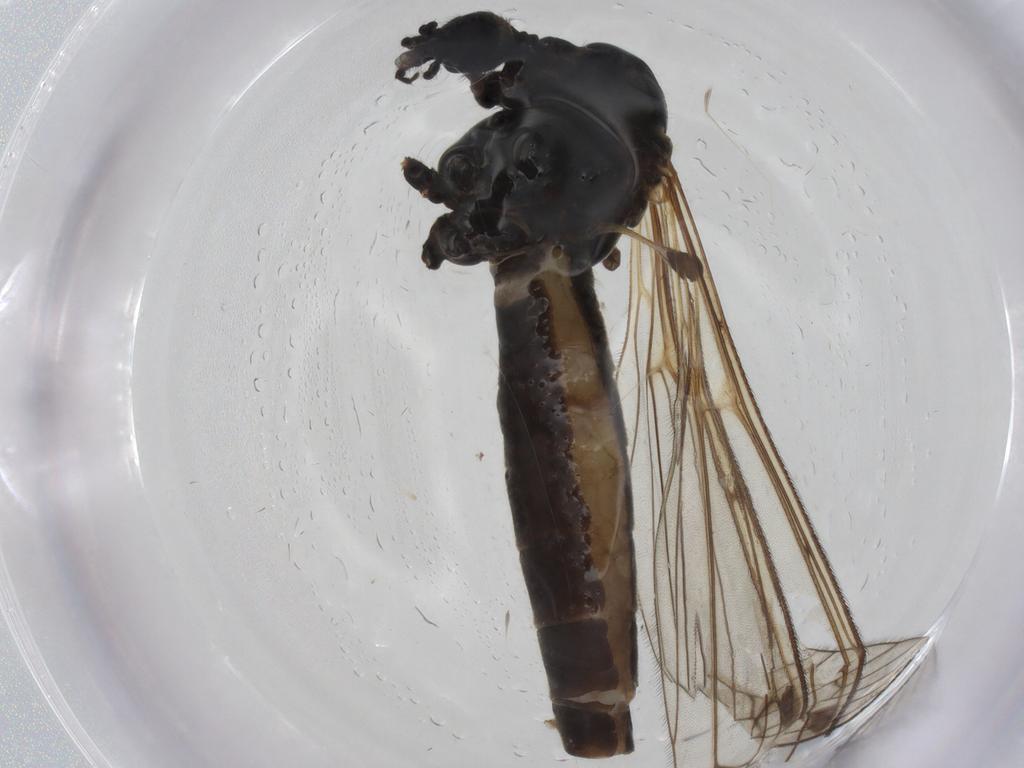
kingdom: Animalia
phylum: Arthropoda
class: Insecta
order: Diptera
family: Limoniidae
